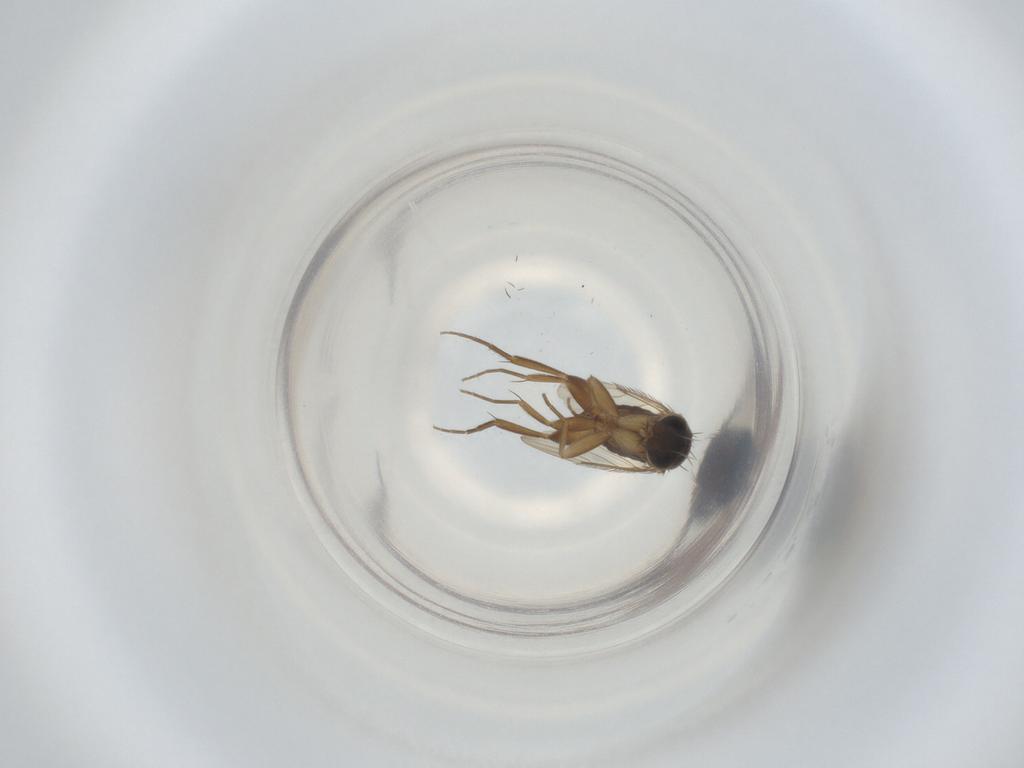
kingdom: Animalia
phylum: Arthropoda
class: Insecta
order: Diptera
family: Phoridae
